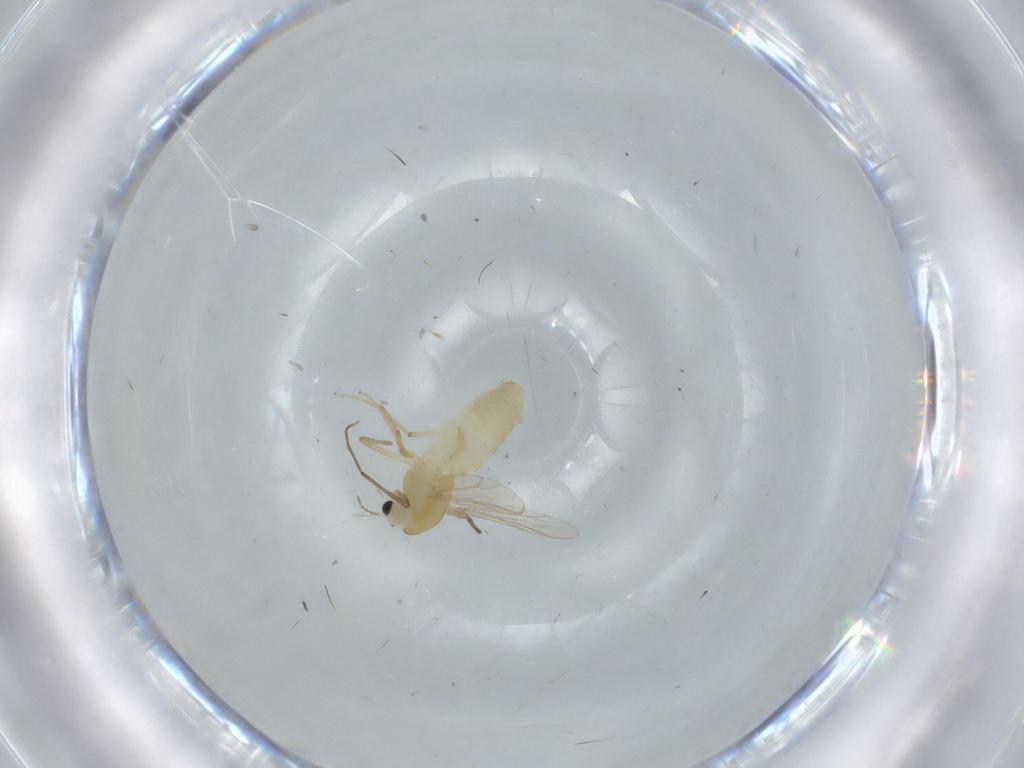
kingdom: Animalia
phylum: Arthropoda
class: Insecta
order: Diptera
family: Chironomidae
